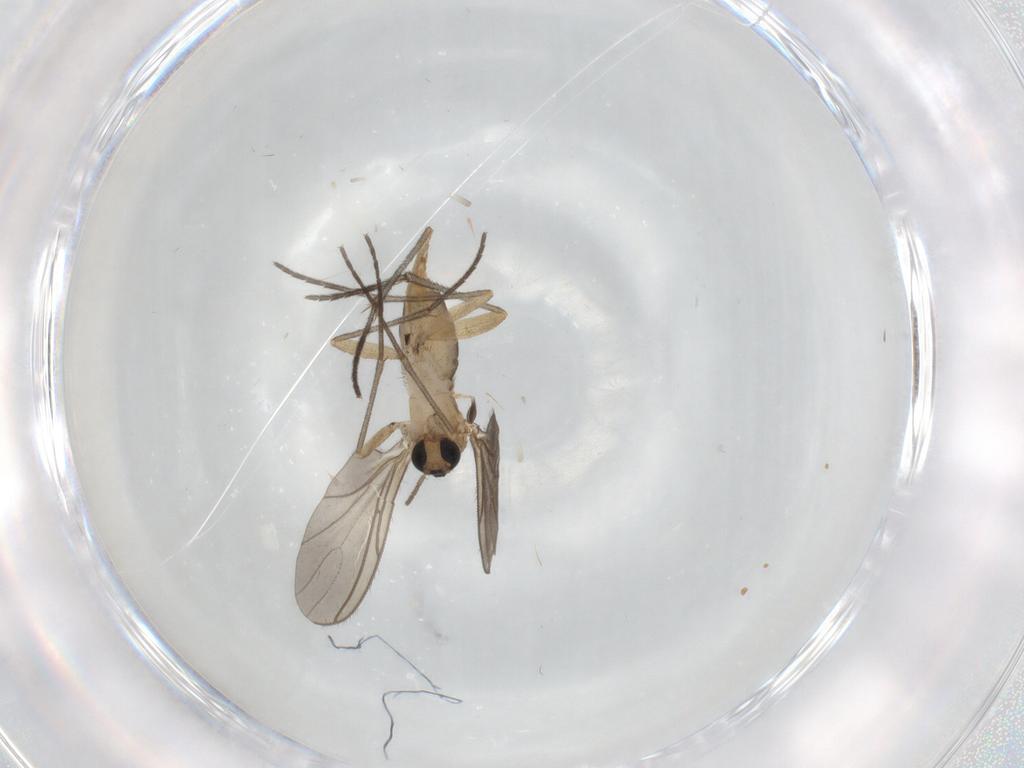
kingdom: Animalia
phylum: Arthropoda
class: Insecta
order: Diptera
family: Sciaridae
